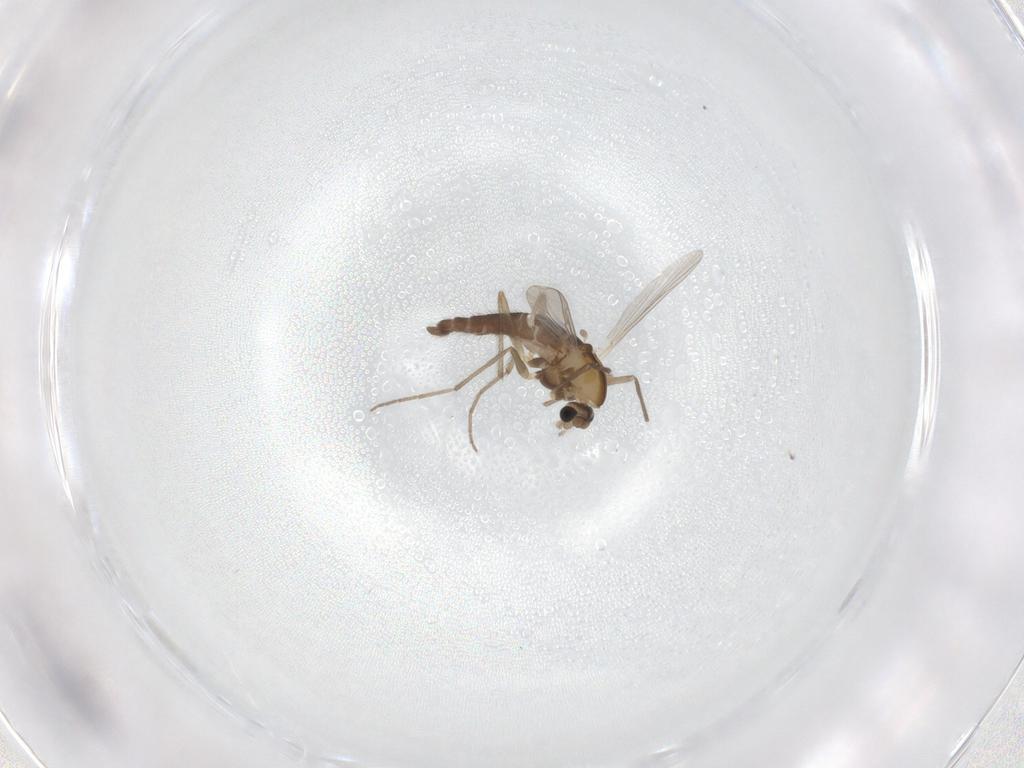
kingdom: Animalia
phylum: Arthropoda
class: Insecta
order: Diptera
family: Chironomidae
